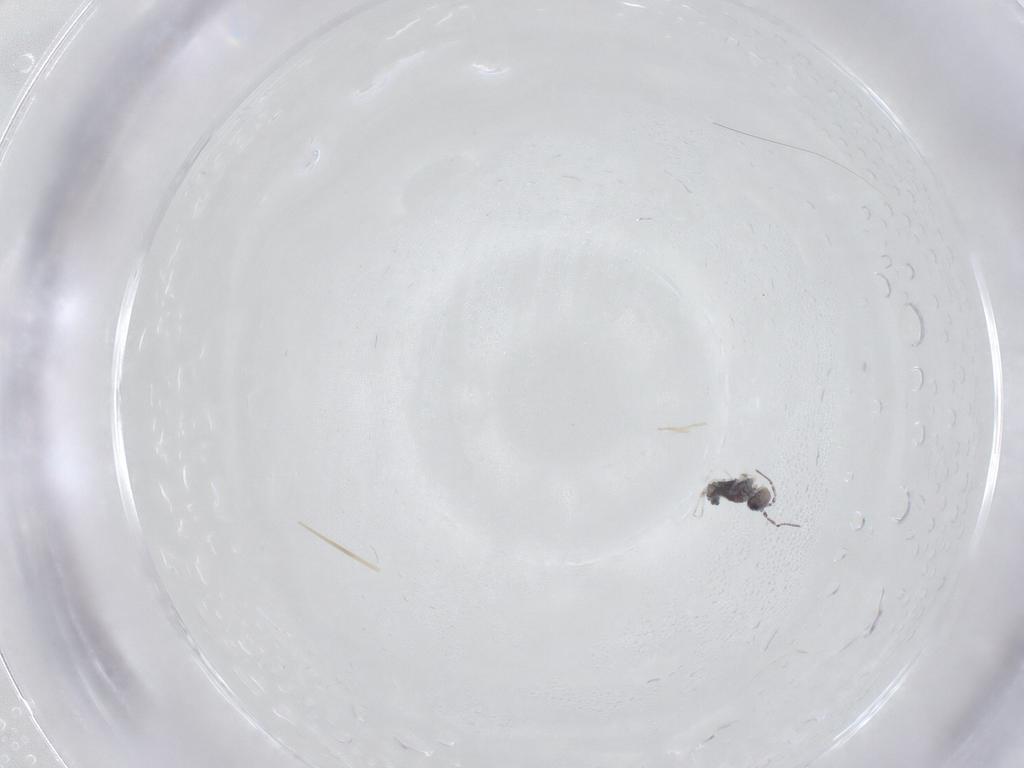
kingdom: Animalia
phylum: Arthropoda
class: Collembola
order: Symphypleona
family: Bourletiellidae
